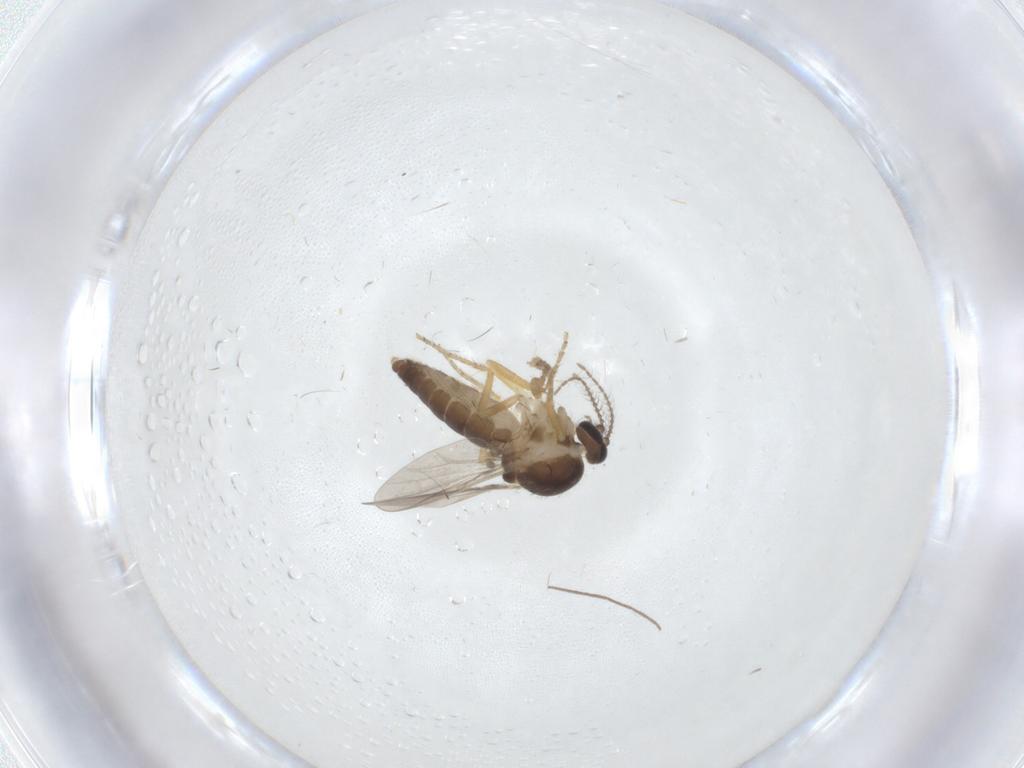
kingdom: Animalia
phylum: Arthropoda
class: Insecta
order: Diptera
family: Ceratopogonidae
